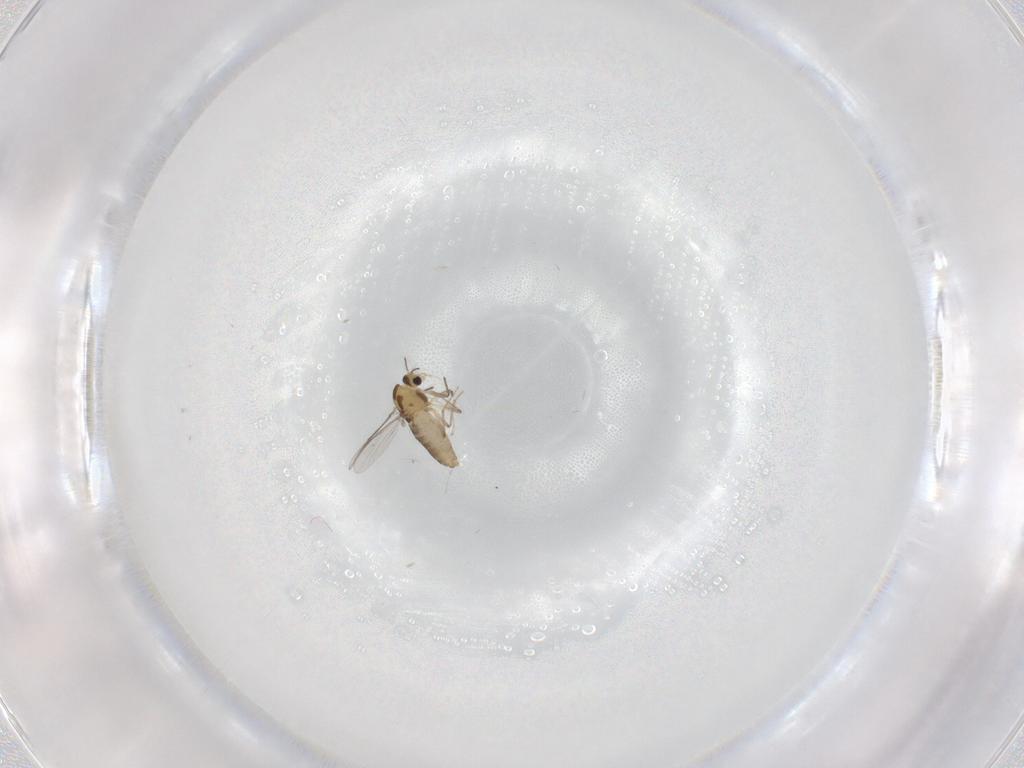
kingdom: Animalia
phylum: Arthropoda
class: Insecta
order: Diptera
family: Chironomidae
